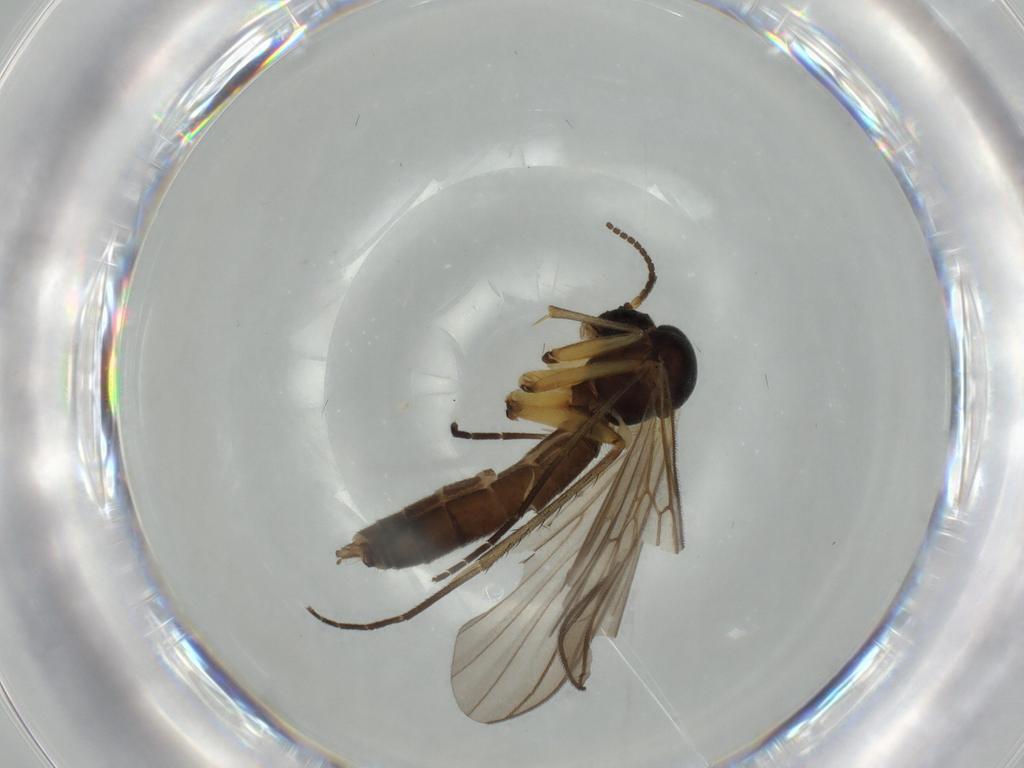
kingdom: Animalia
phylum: Arthropoda
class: Insecta
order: Diptera
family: Mycetophilidae
